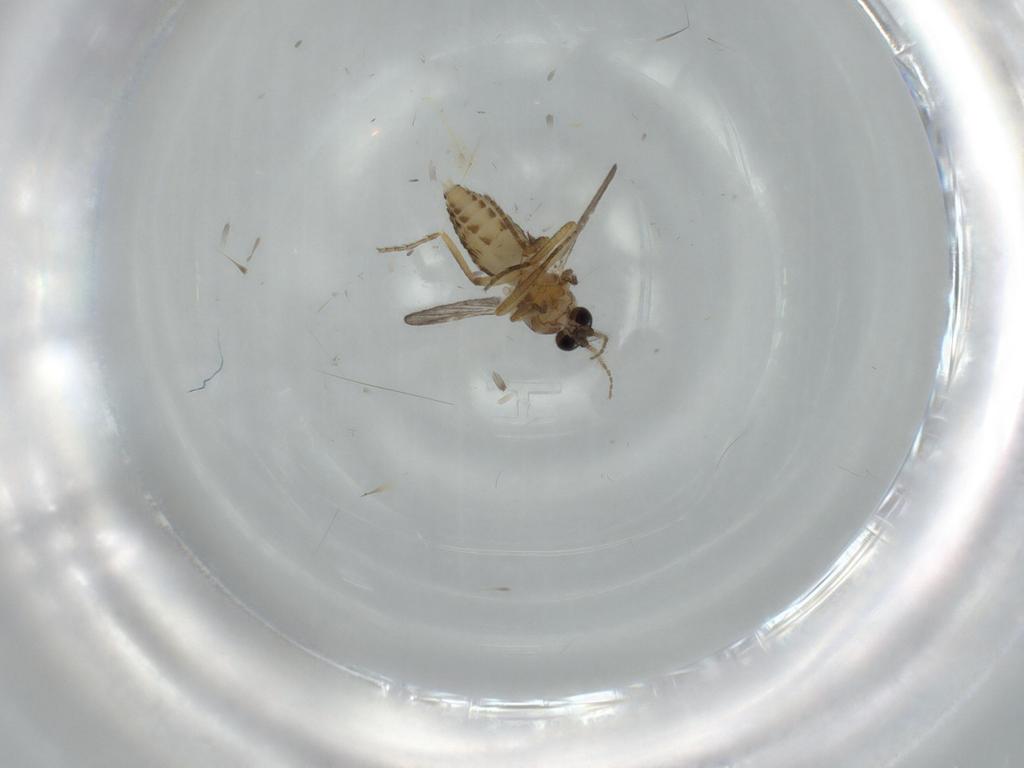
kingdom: Animalia
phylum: Arthropoda
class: Insecta
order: Diptera
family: Ceratopogonidae
